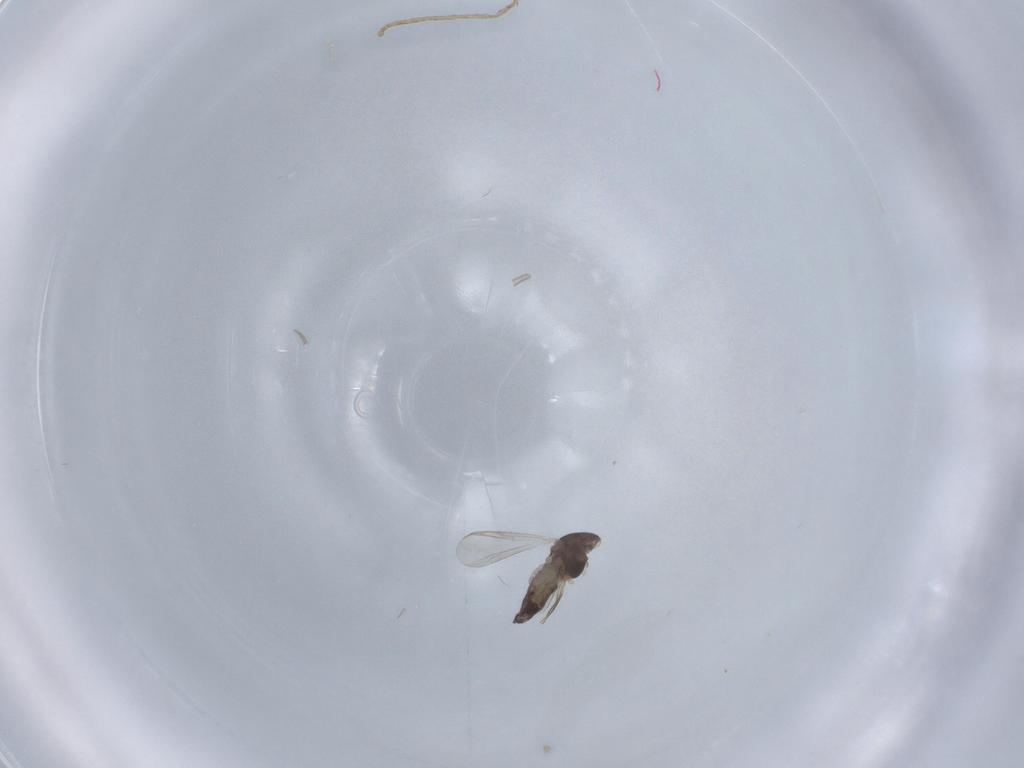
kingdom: Animalia
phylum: Arthropoda
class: Insecta
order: Diptera
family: Chironomidae
